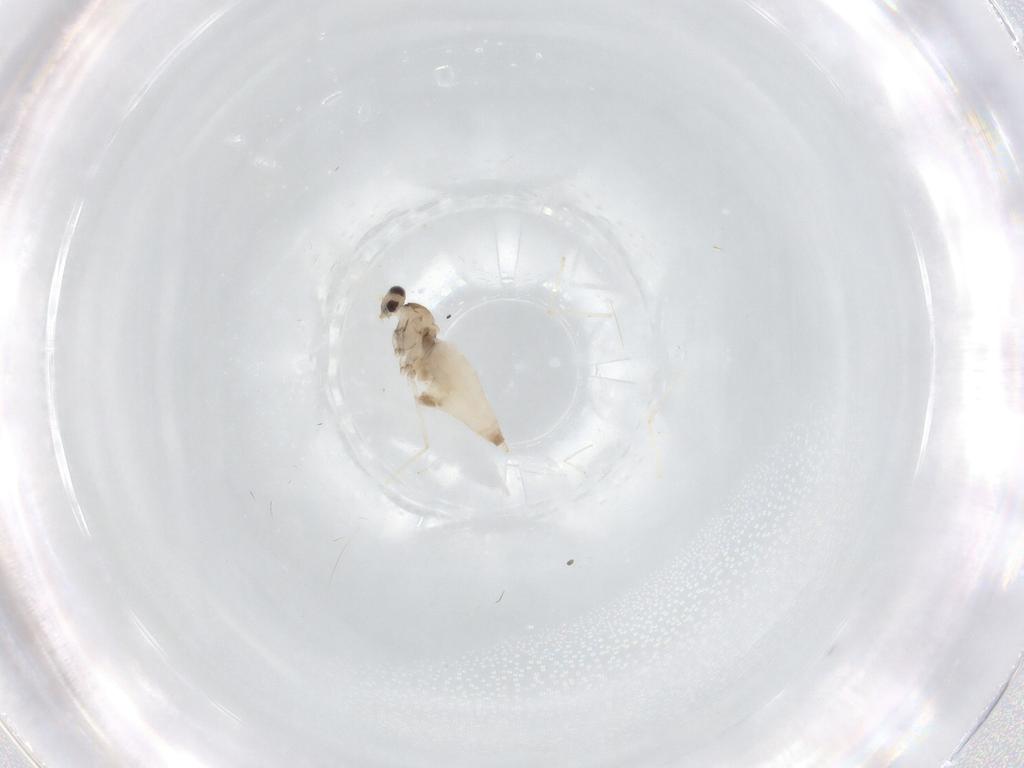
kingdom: Animalia
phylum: Arthropoda
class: Insecta
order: Diptera
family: Cecidomyiidae
